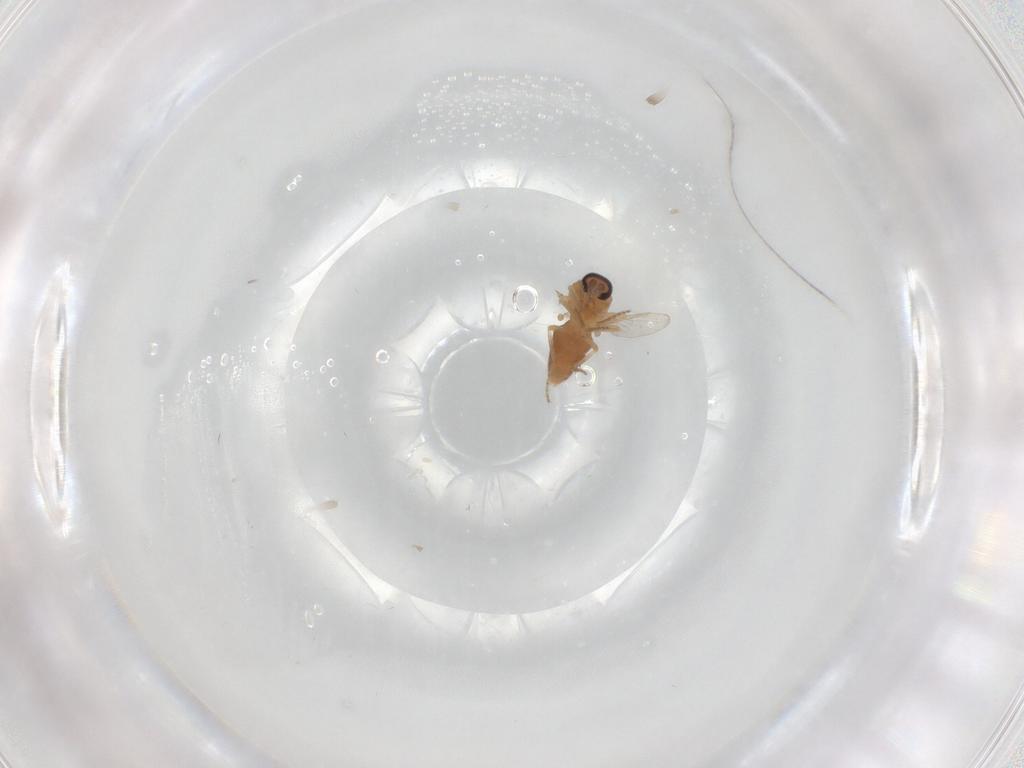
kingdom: Animalia
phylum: Arthropoda
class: Insecta
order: Diptera
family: Ceratopogonidae
